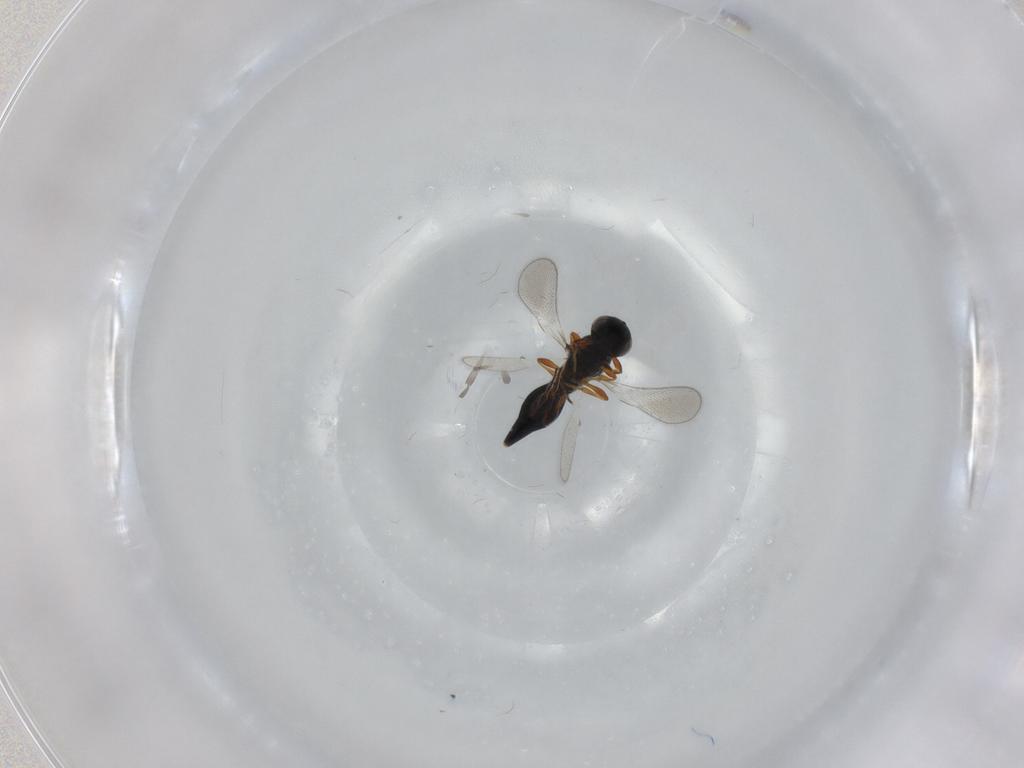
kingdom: Animalia
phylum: Arthropoda
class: Insecta
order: Hymenoptera
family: Platygastridae
